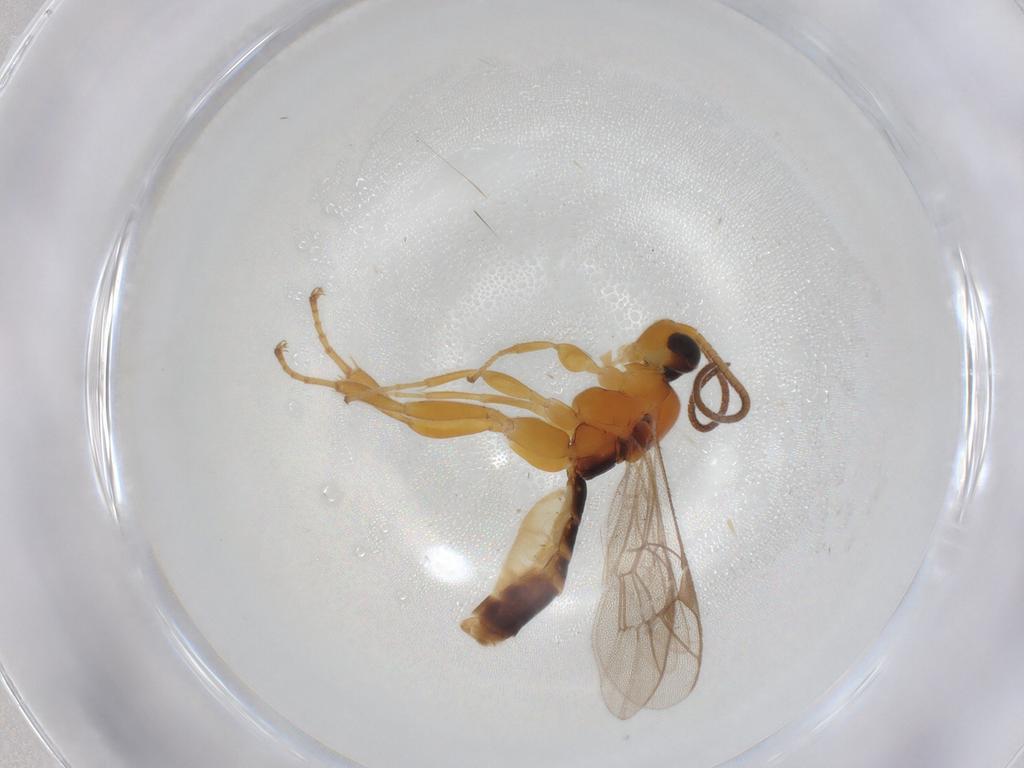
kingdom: Animalia
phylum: Arthropoda
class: Insecta
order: Hymenoptera
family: Ichneumonidae
